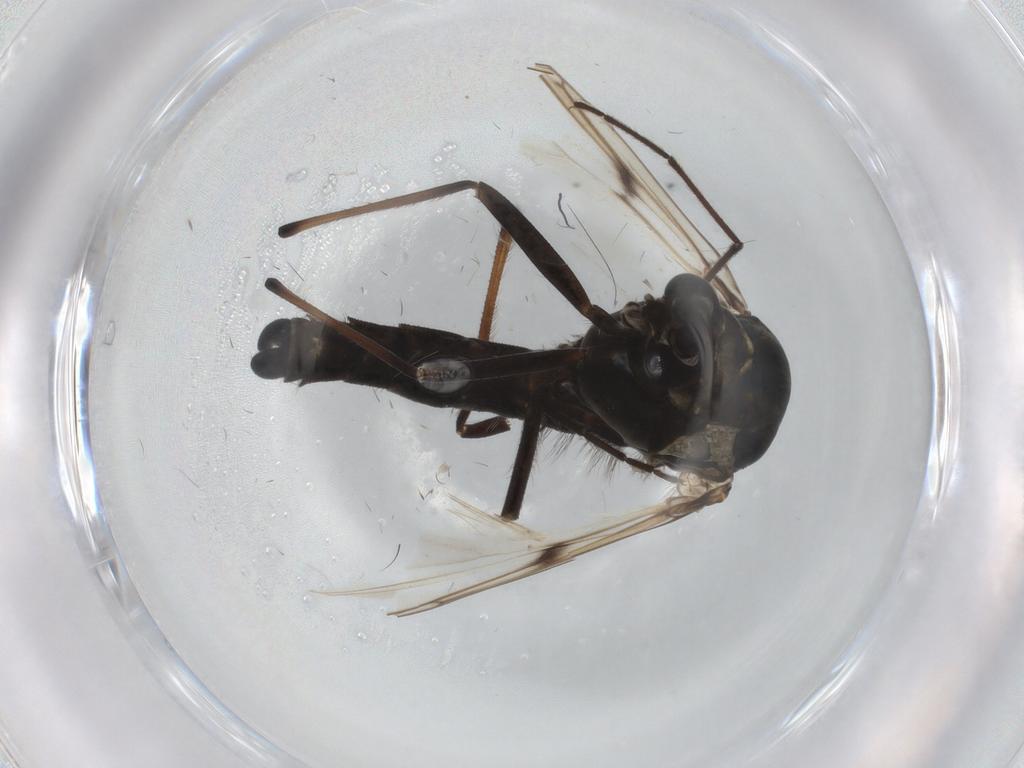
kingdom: Animalia
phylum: Arthropoda
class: Insecta
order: Diptera
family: Chironomidae
